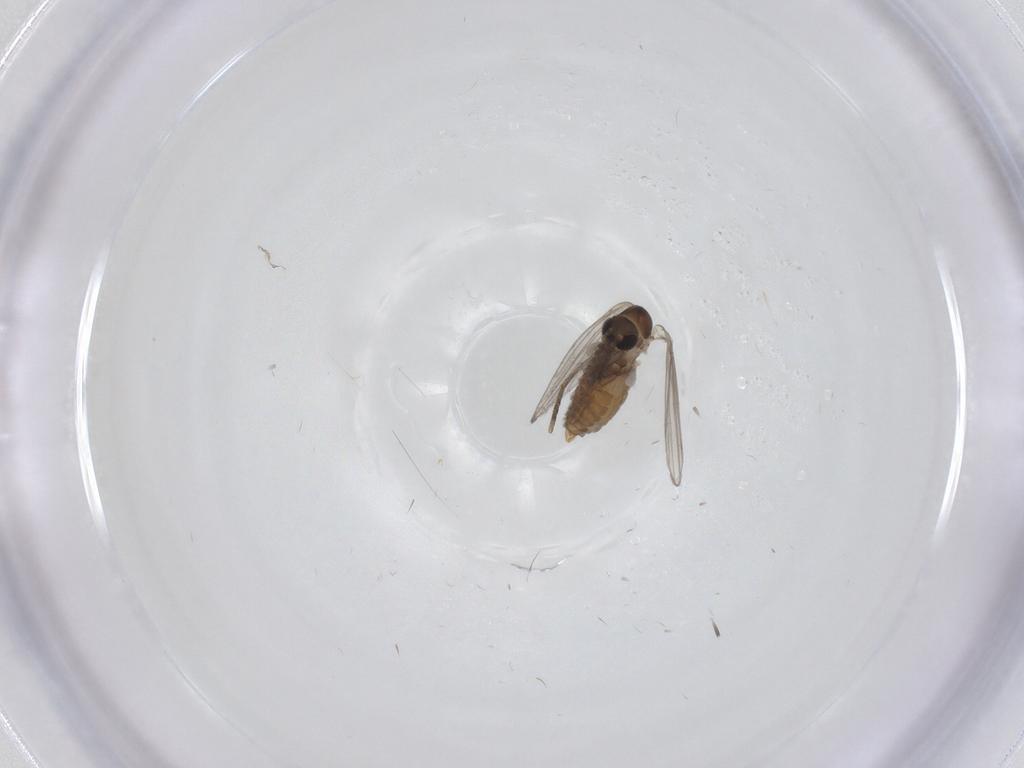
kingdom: Animalia
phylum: Arthropoda
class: Insecta
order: Diptera
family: Psychodidae
